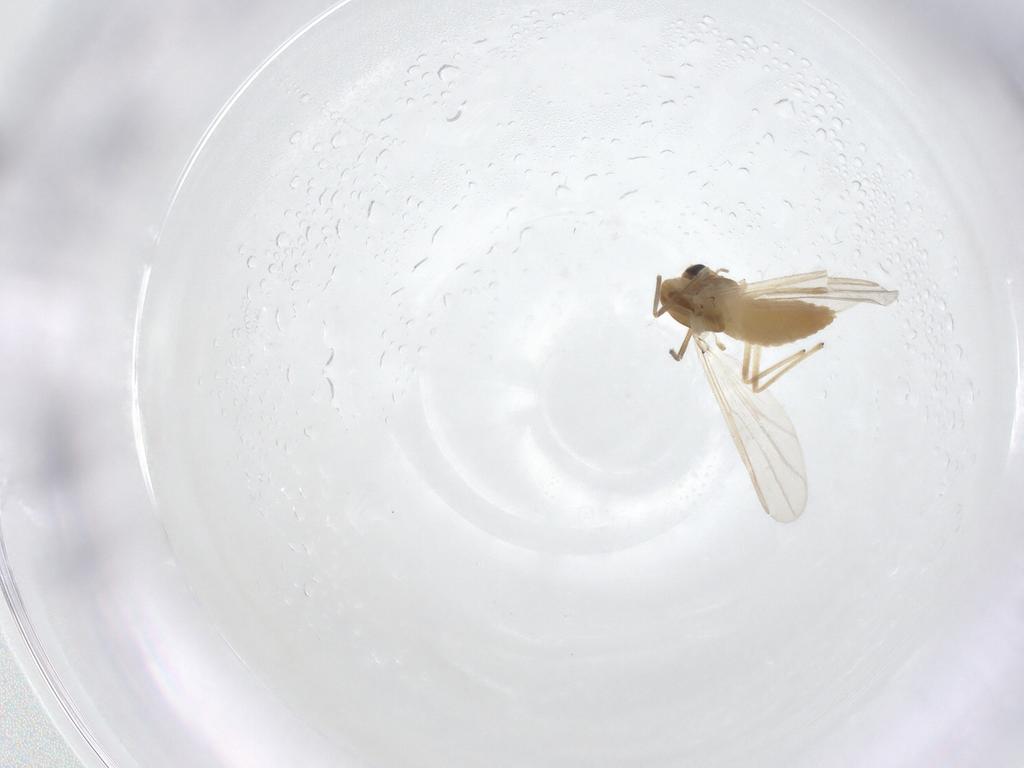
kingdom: Animalia
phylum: Arthropoda
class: Insecta
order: Diptera
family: Chironomidae
